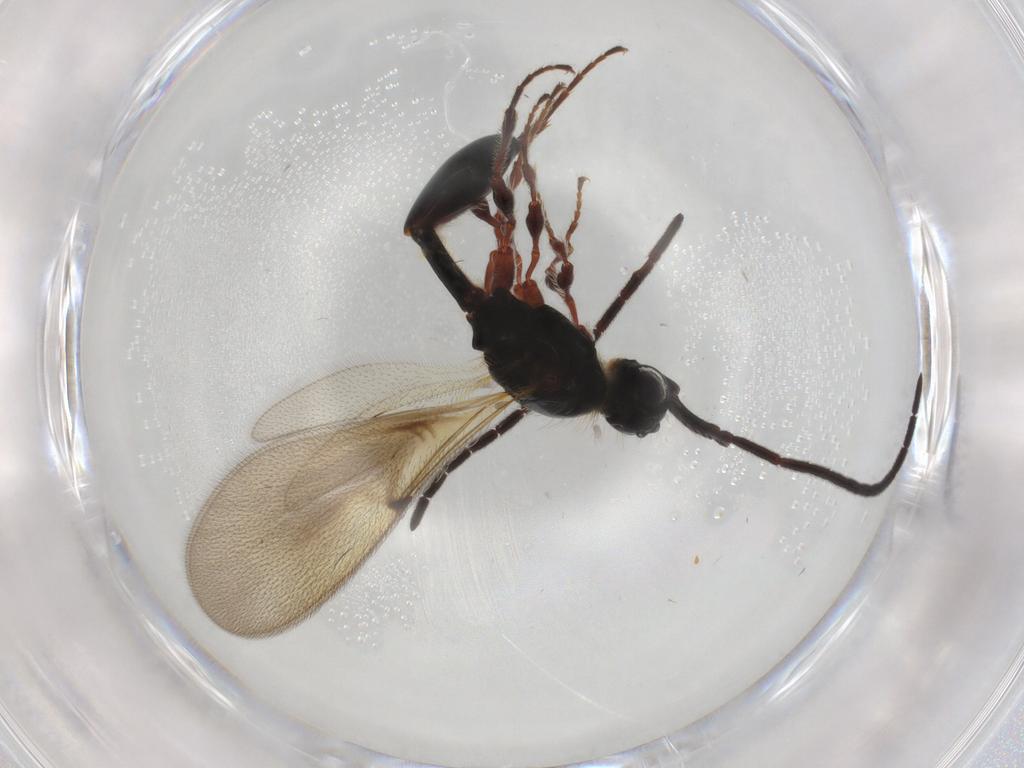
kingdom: Animalia
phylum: Arthropoda
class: Insecta
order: Hymenoptera
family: Diapriidae
